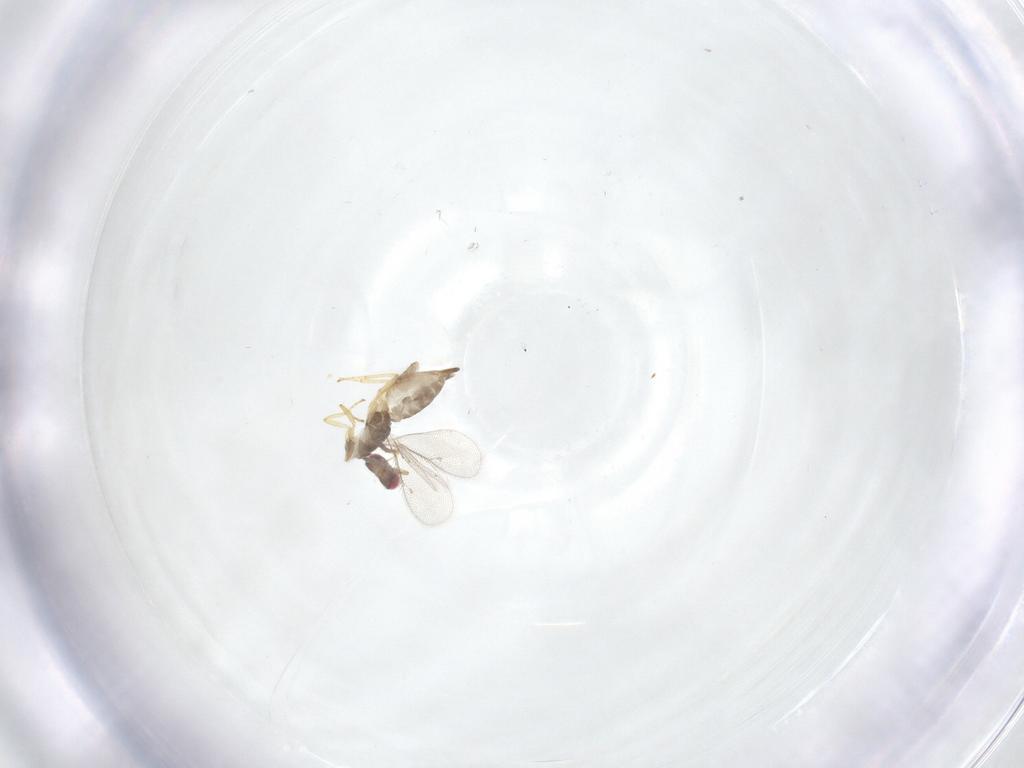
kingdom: Animalia
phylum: Arthropoda
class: Insecta
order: Hymenoptera
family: Eulophidae
